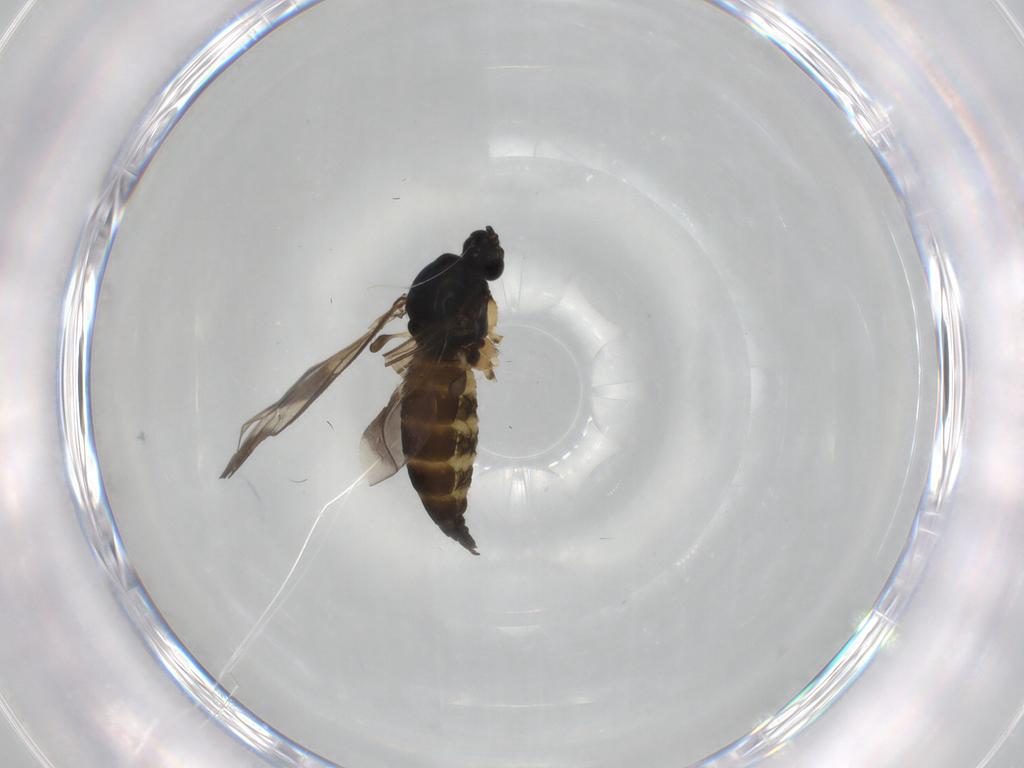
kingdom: Animalia
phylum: Arthropoda
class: Insecta
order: Diptera
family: Sciaridae
